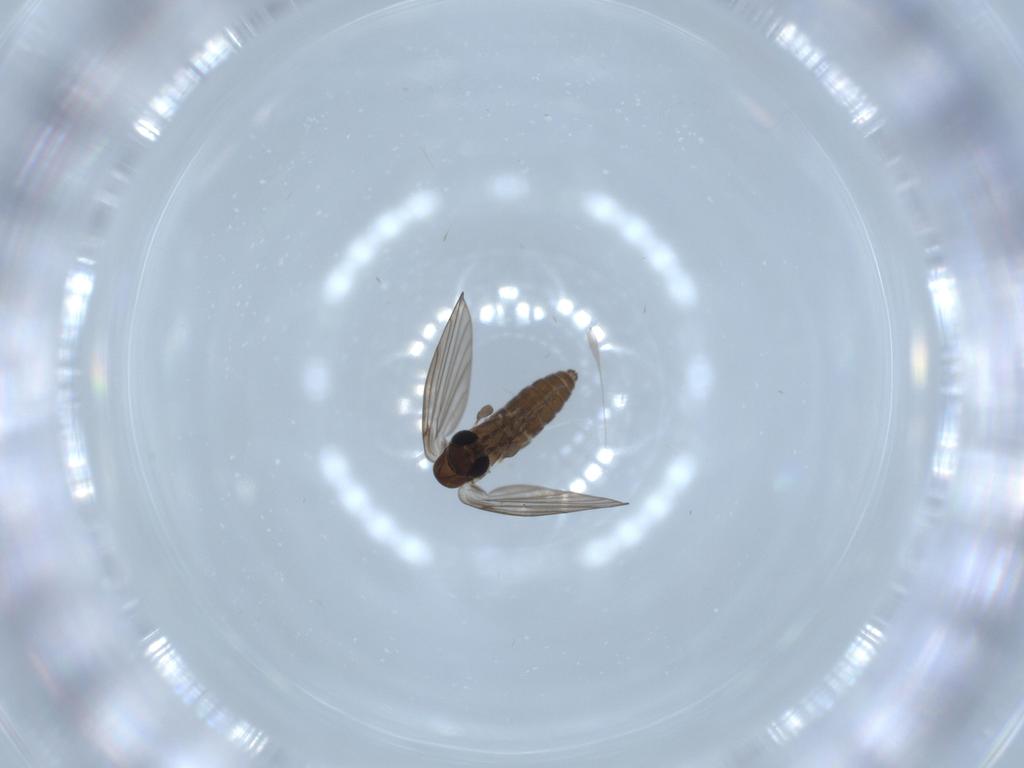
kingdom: Animalia
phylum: Arthropoda
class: Insecta
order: Diptera
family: Psychodidae
